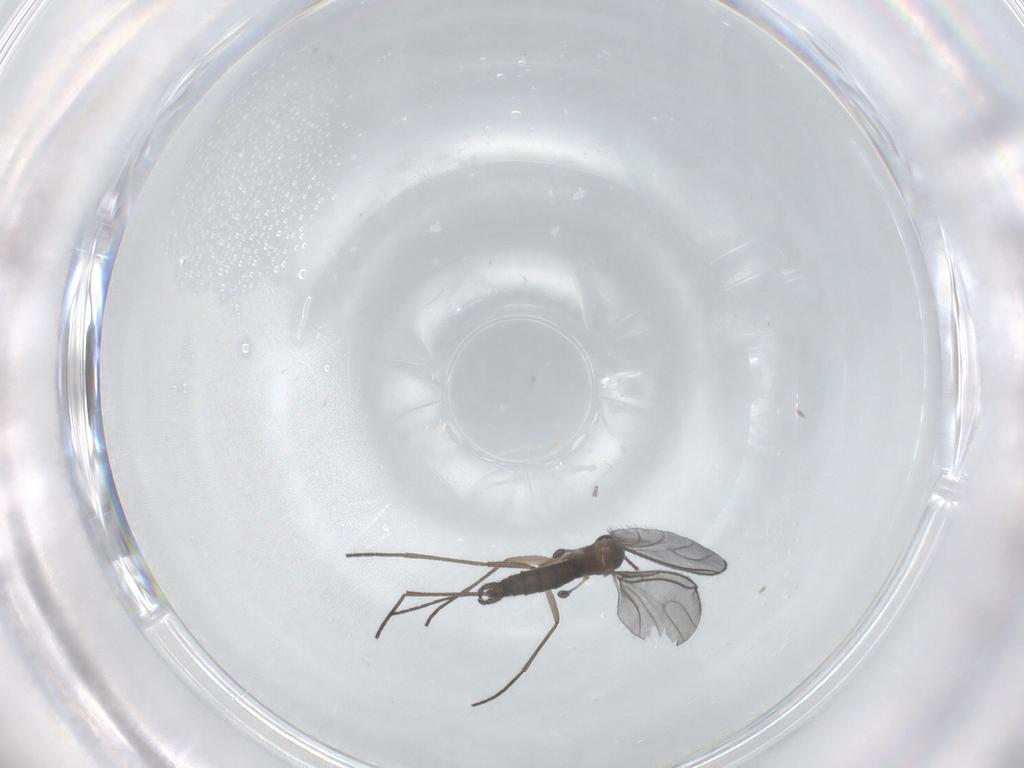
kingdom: Animalia
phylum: Arthropoda
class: Insecta
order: Diptera
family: Sciaridae
